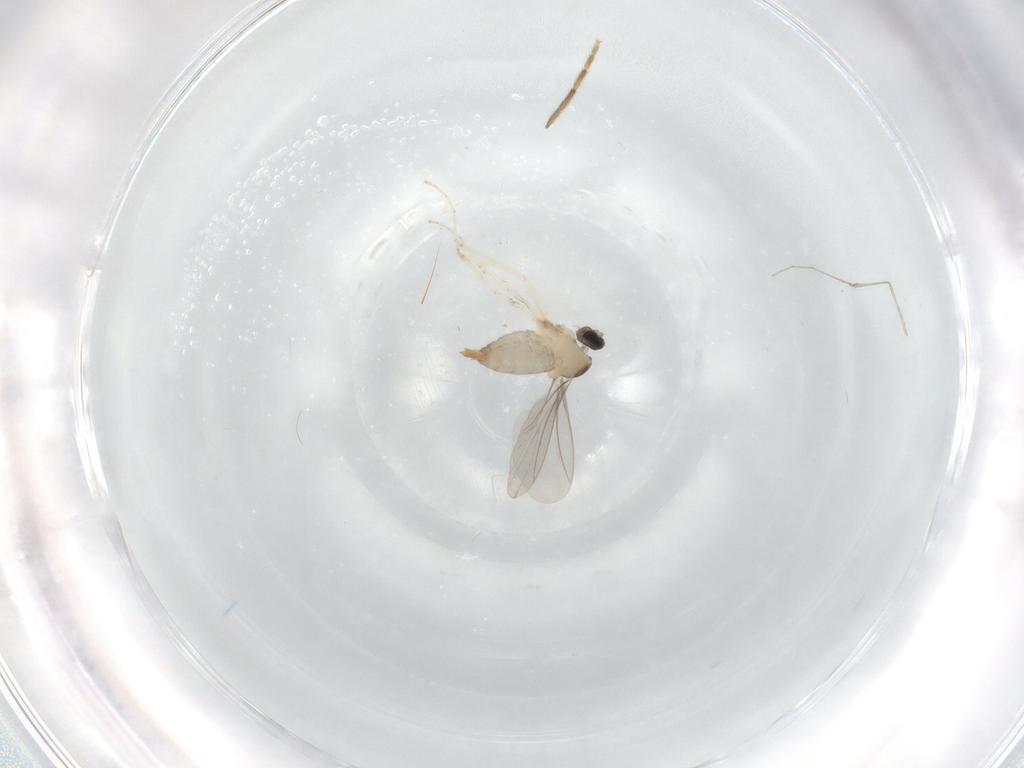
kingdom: Animalia
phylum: Arthropoda
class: Insecta
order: Diptera
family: Cecidomyiidae
